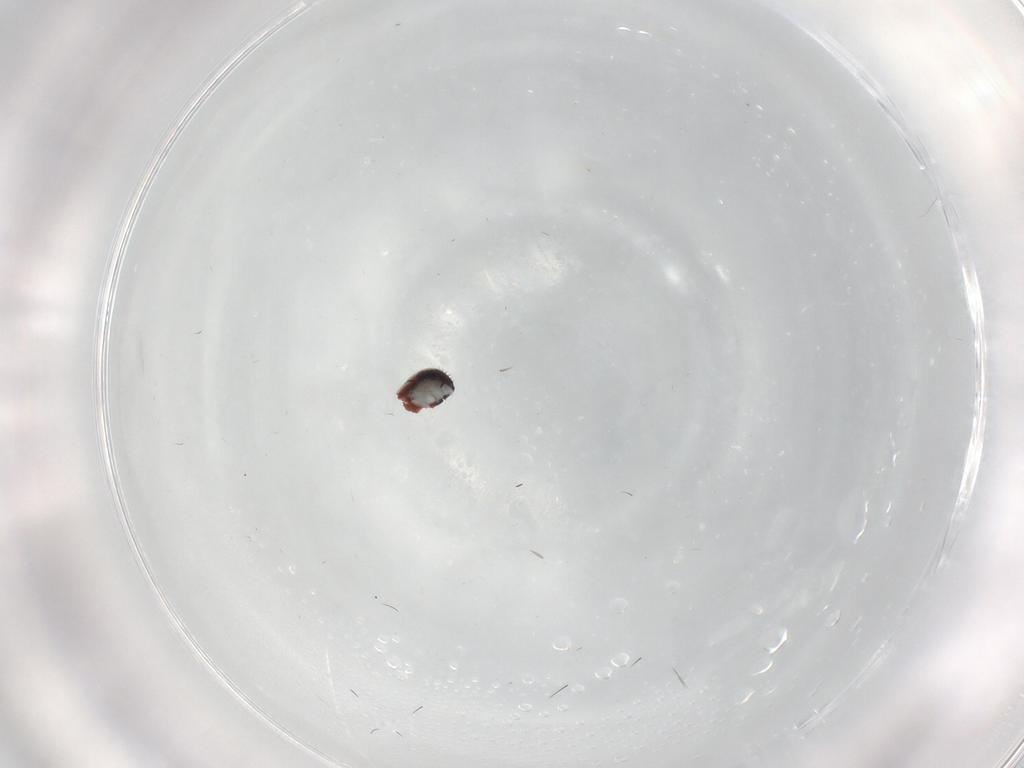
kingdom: Animalia
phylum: Arthropoda
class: Insecta
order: Diptera
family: Dolichopodidae
